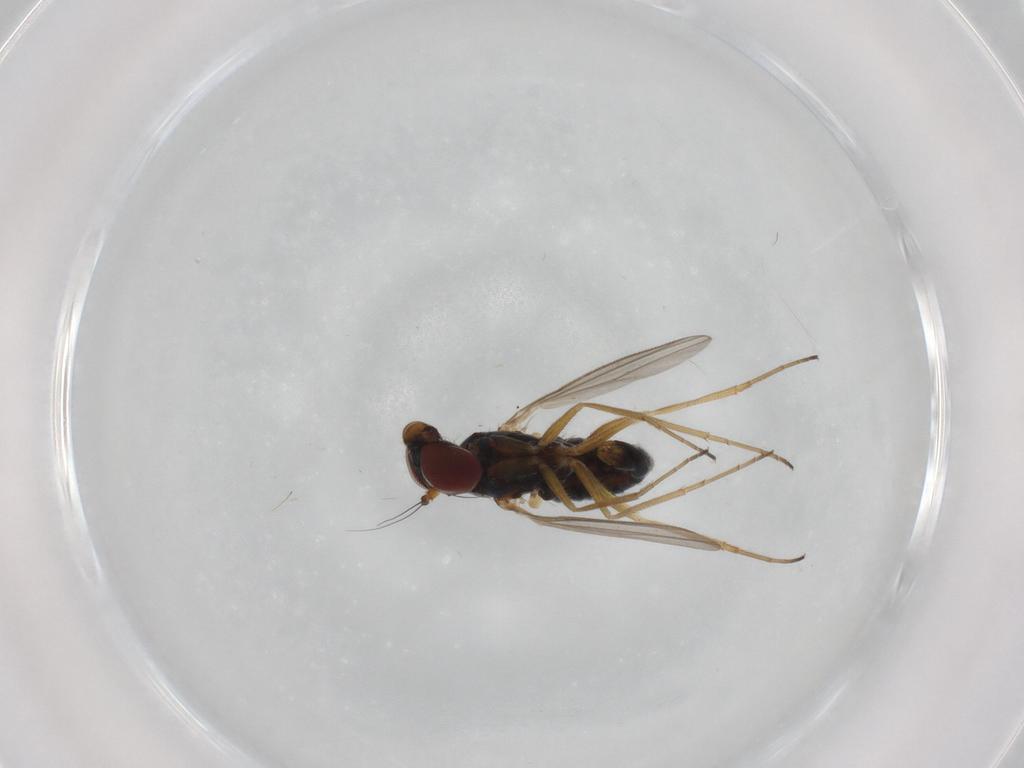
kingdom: Animalia
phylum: Arthropoda
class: Insecta
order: Diptera
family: Dolichopodidae
